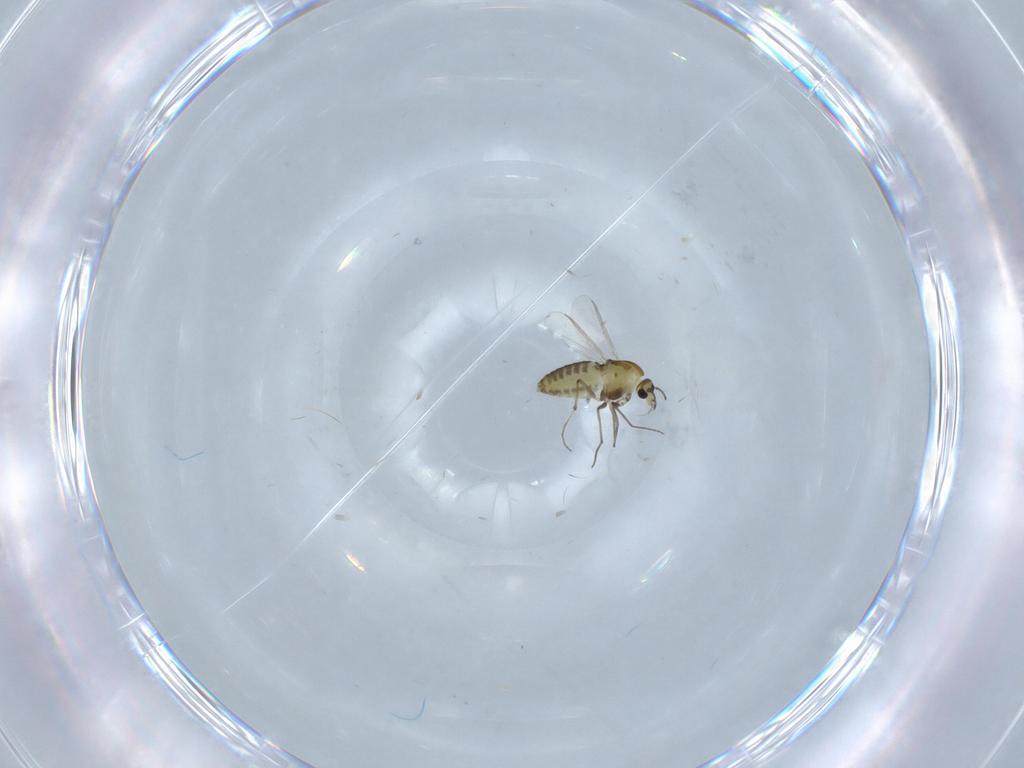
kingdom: Animalia
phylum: Arthropoda
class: Insecta
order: Diptera
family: Chironomidae
